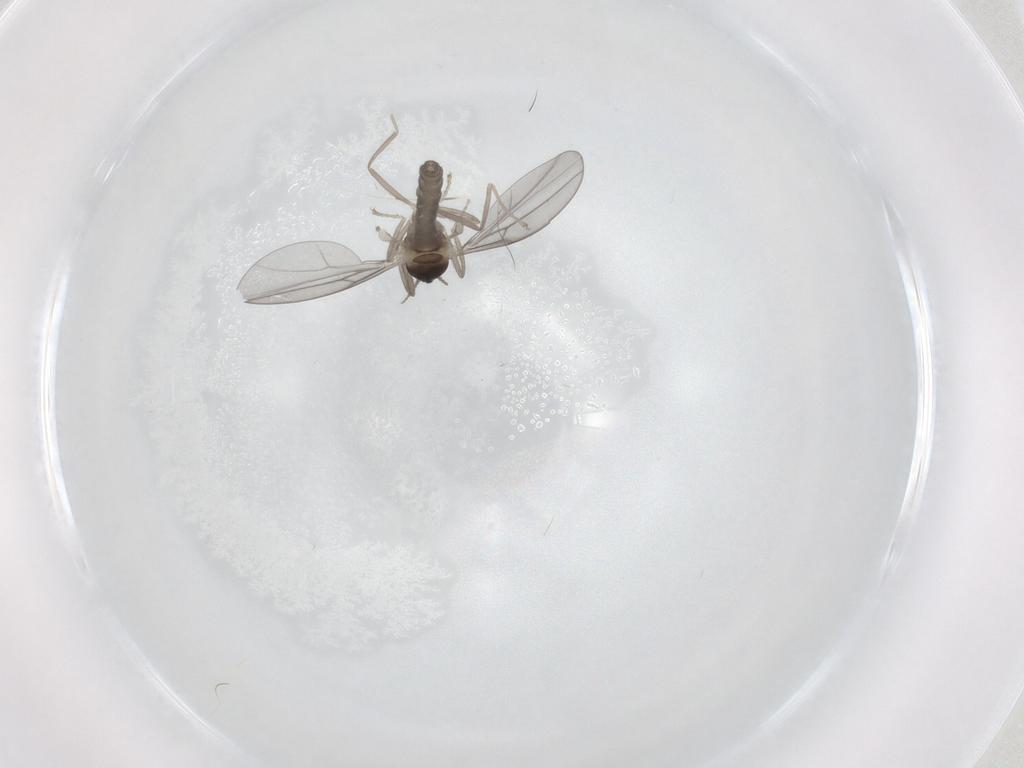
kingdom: Animalia
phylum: Arthropoda
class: Insecta
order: Diptera
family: Cecidomyiidae
